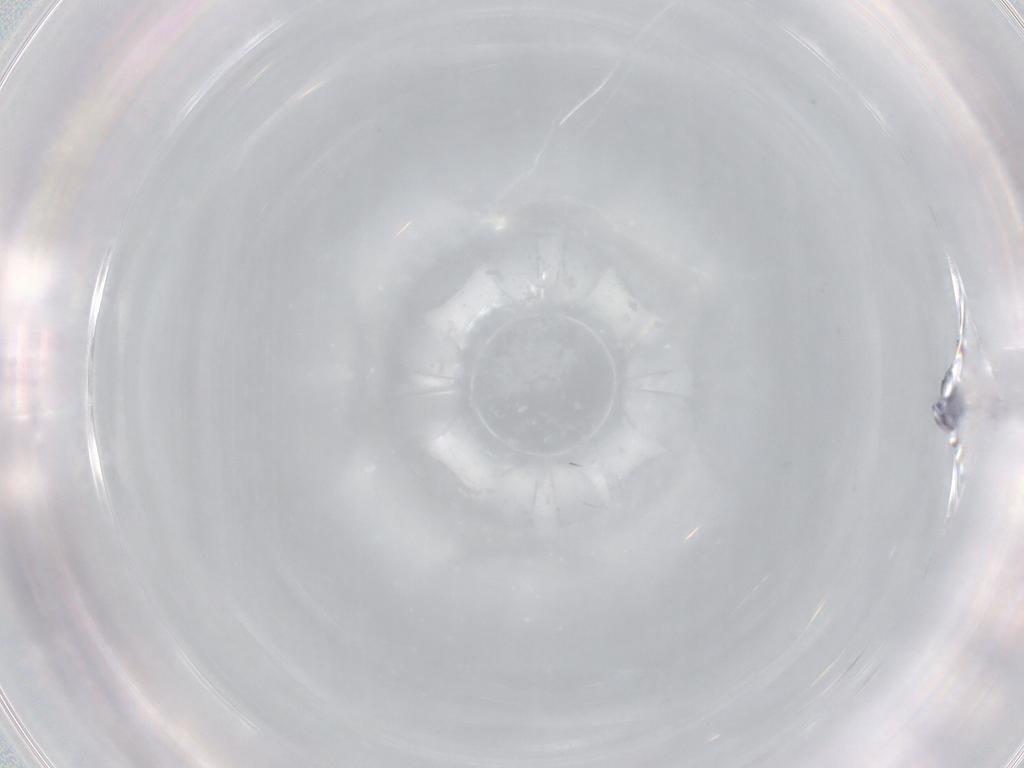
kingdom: Animalia
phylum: Arthropoda
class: Collembola
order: Entomobryomorpha
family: Entomobryidae
